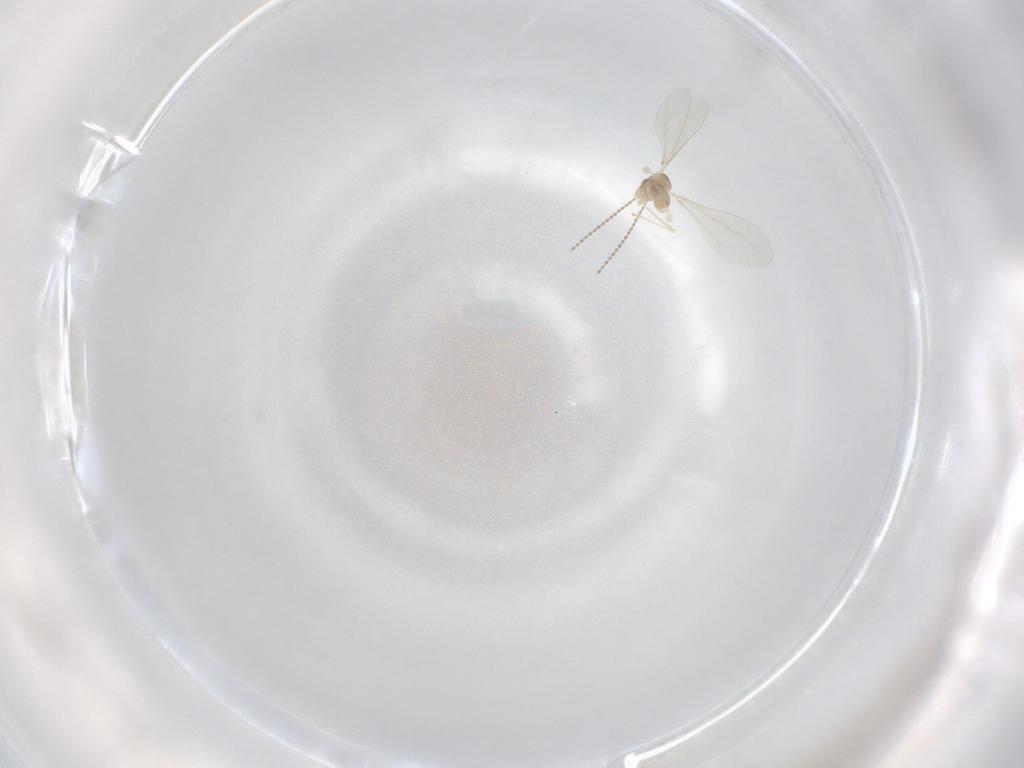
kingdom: Animalia
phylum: Arthropoda
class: Insecta
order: Diptera
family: Cecidomyiidae
